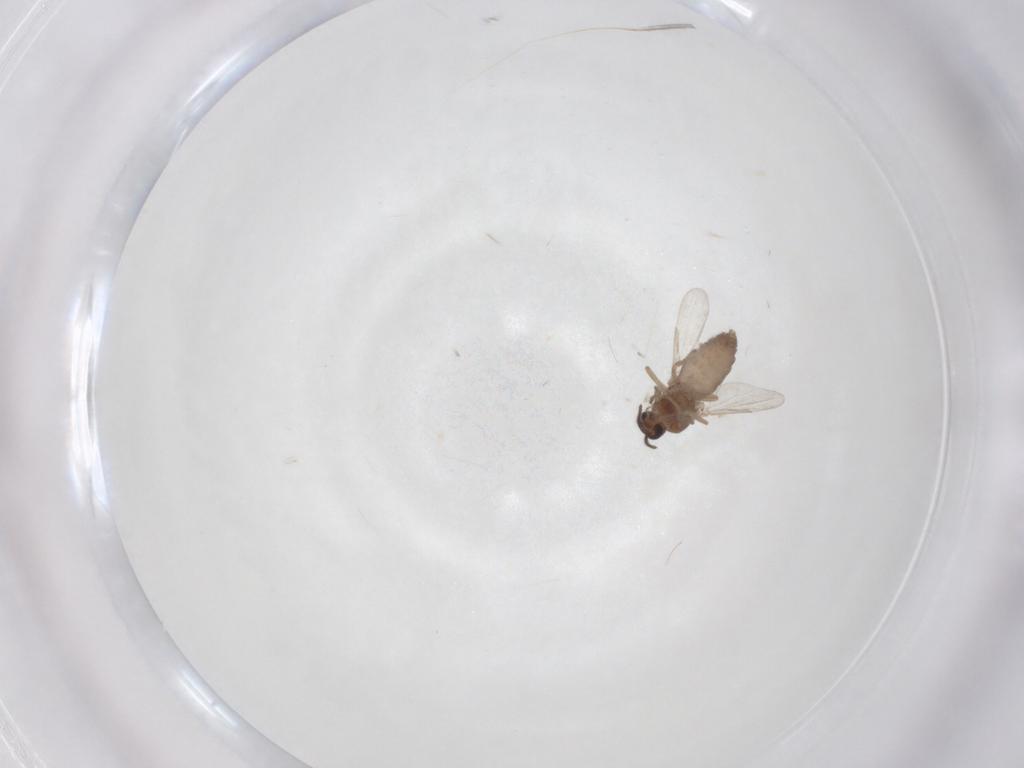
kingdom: Animalia
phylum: Arthropoda
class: Insecta
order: Diptera
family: Ceratopogonidae
